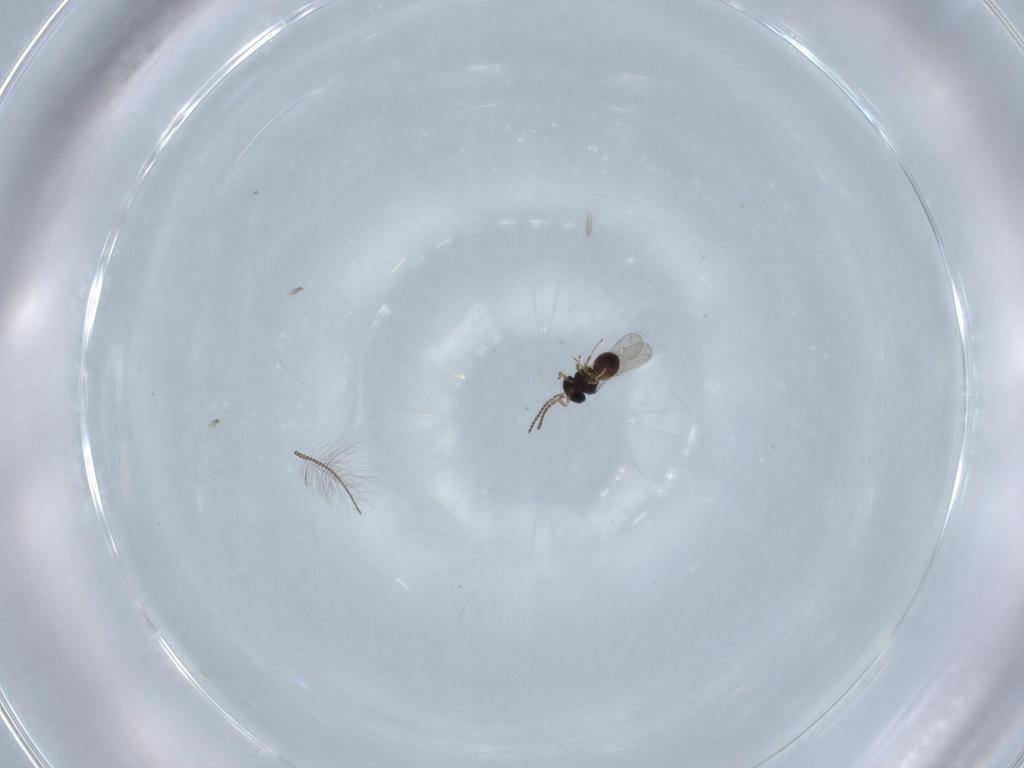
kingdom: Animalia
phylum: Arthropoda
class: Insecta
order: Hymenoptera
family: Scelionidae
